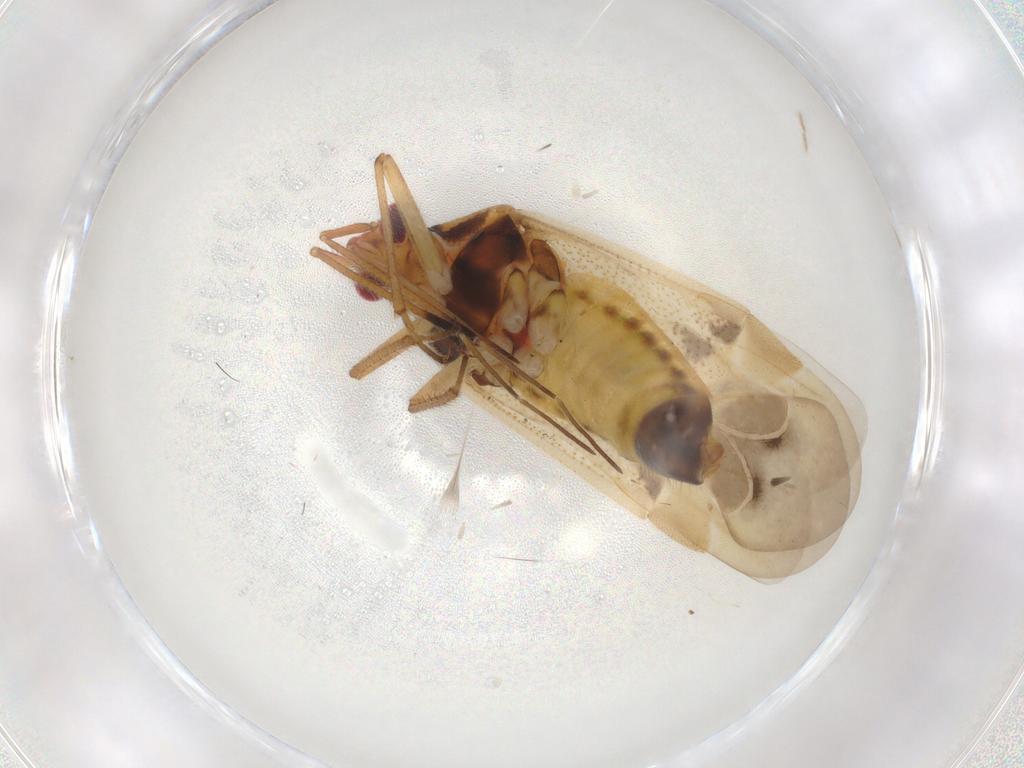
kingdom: Animalia
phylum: Arthropoda
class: Insecta
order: Hemiptera
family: Miridae
